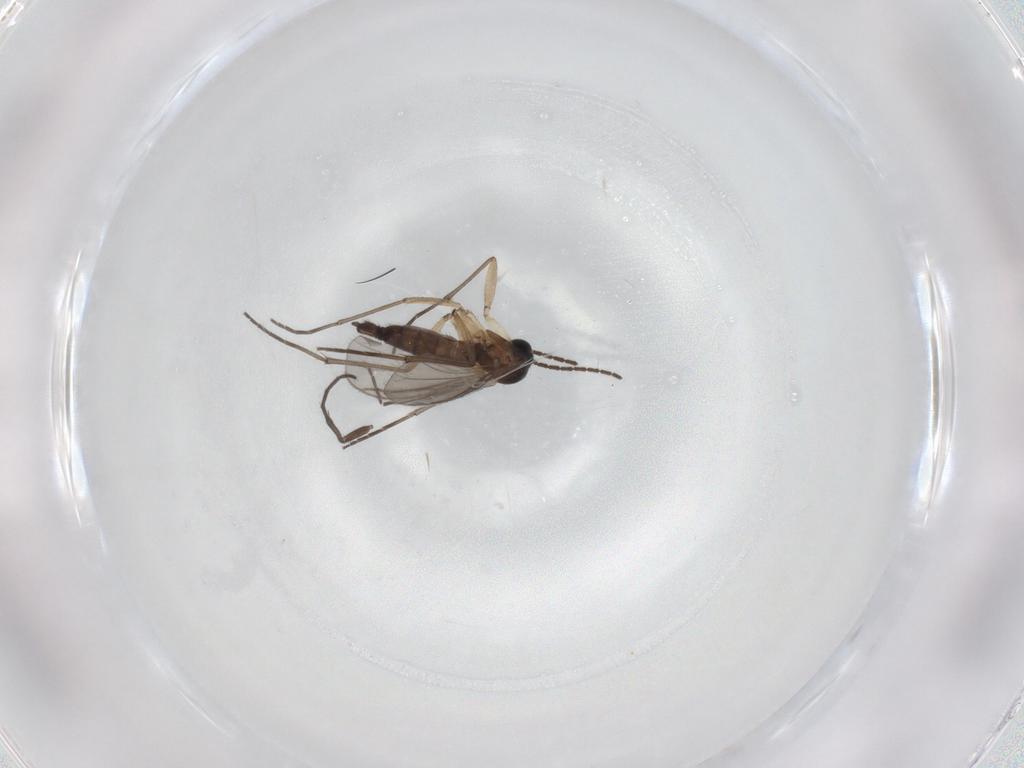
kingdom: Animalia
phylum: Arthropoda
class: Insecta
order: Diptera
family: Sciaridae
